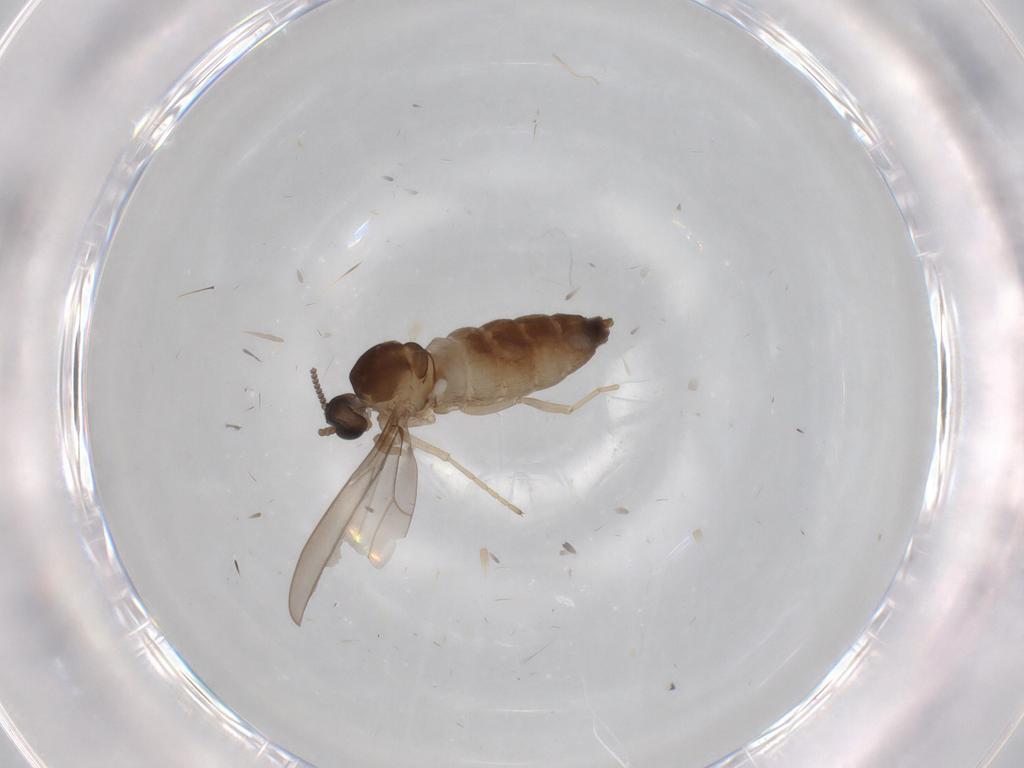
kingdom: Animalia
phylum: Arthropoda
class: Insecta
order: Diptera
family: Cecidomyiidae
